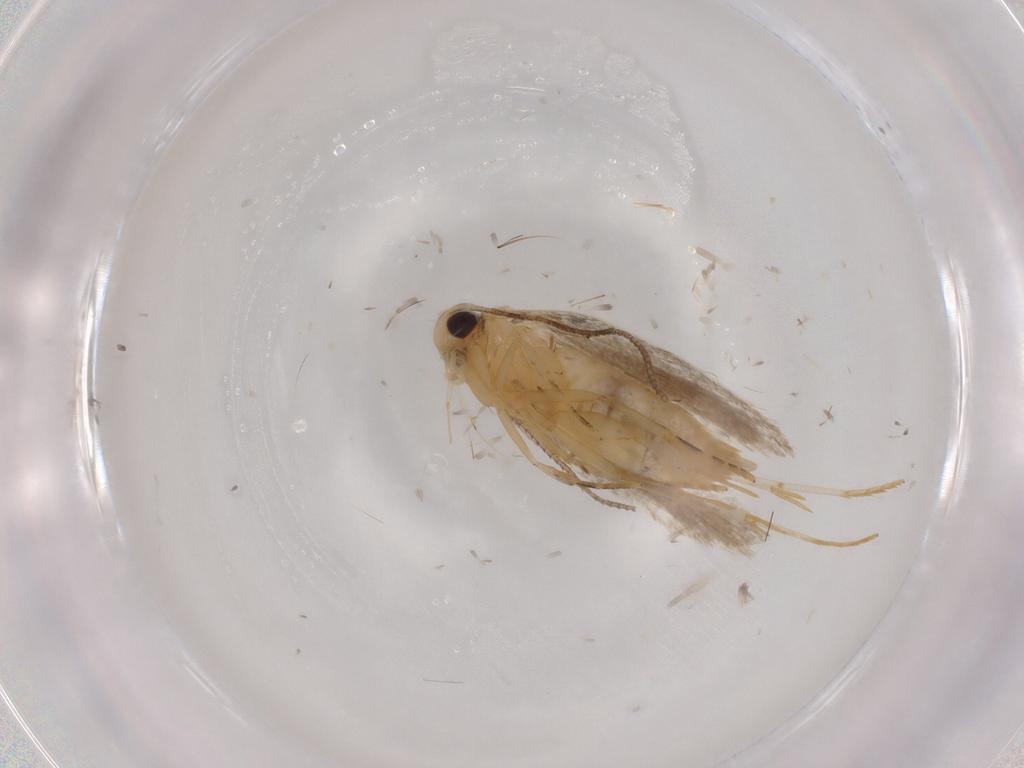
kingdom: Animalia
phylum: Arthropoda
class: Insecta
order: Lepidoptera
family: Autostichidae
